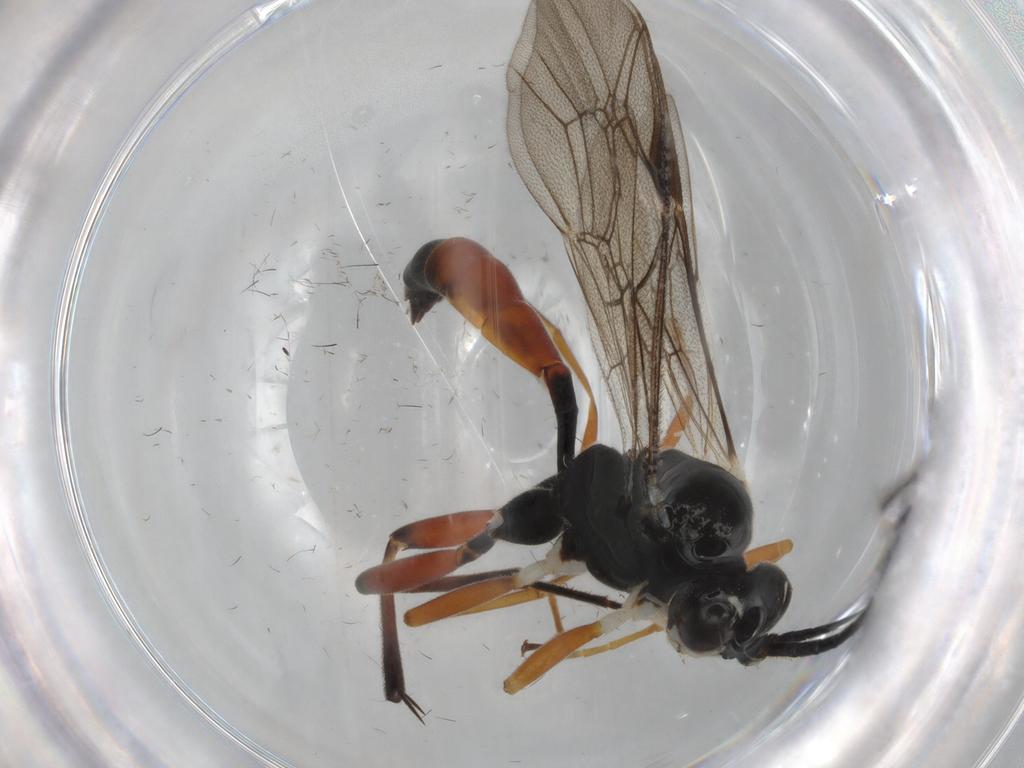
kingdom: Animalia
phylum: Arthropoda
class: Insecta
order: Hymenoptera
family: Ichneumonidae
